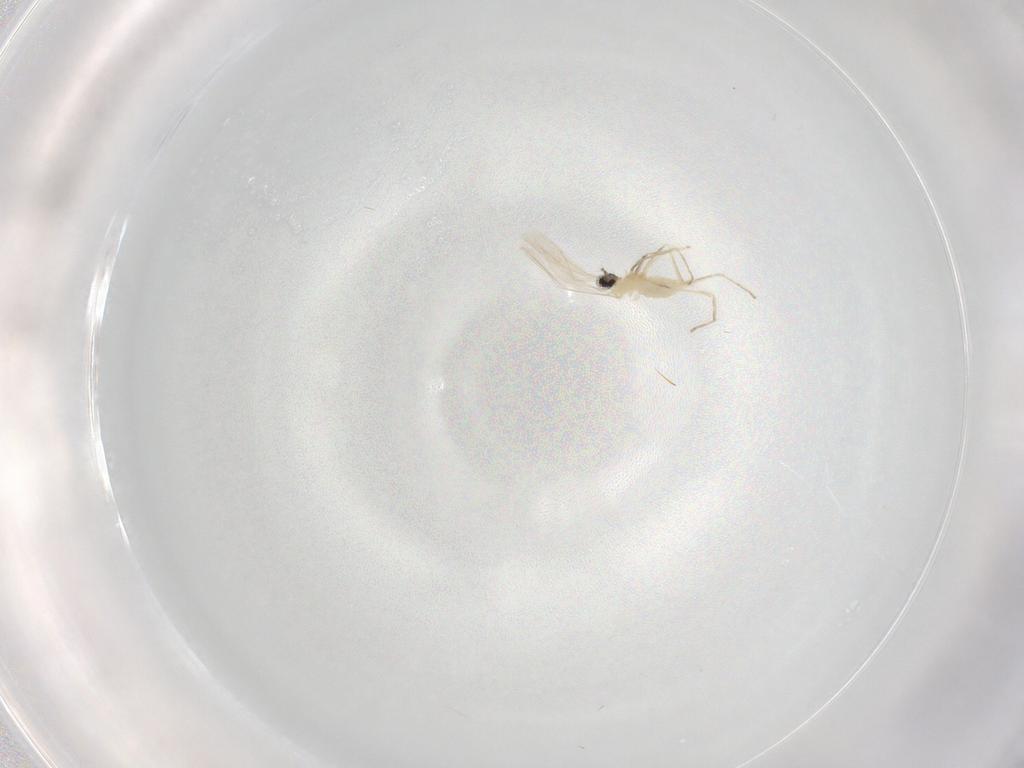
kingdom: Animalia
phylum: Arthropoda
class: Insecta
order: Diptera
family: Cecidomyiidae
